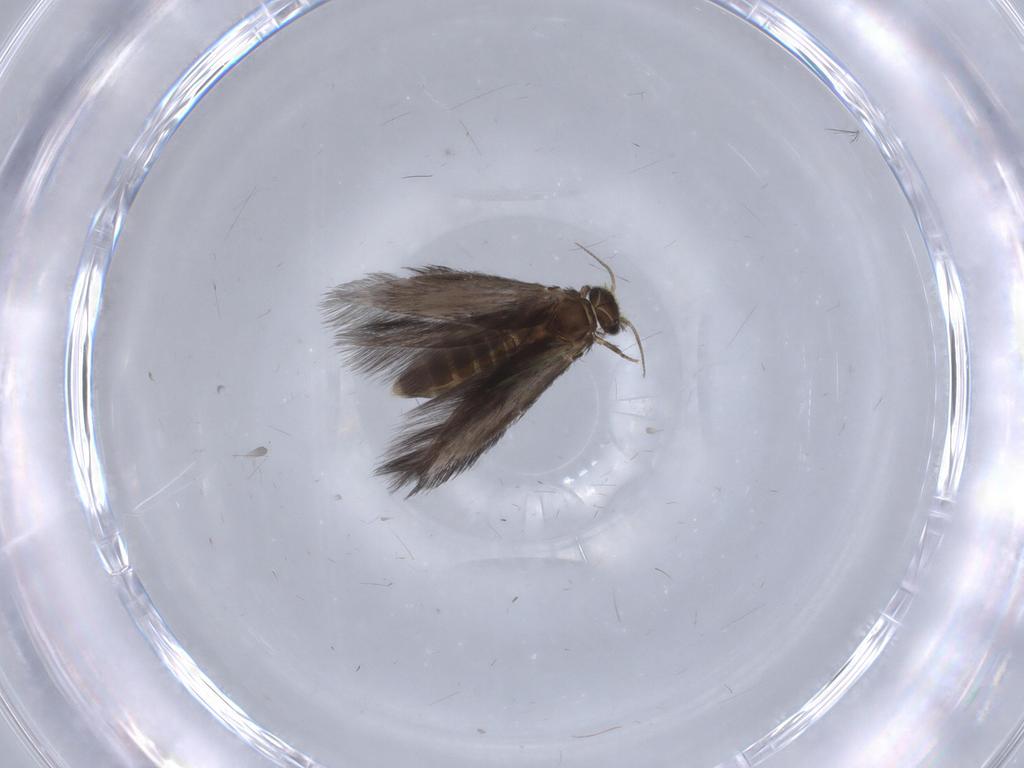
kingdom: Animalia
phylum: Arthropoda
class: Insecta
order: Trichoptera
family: Hydroptilidae
